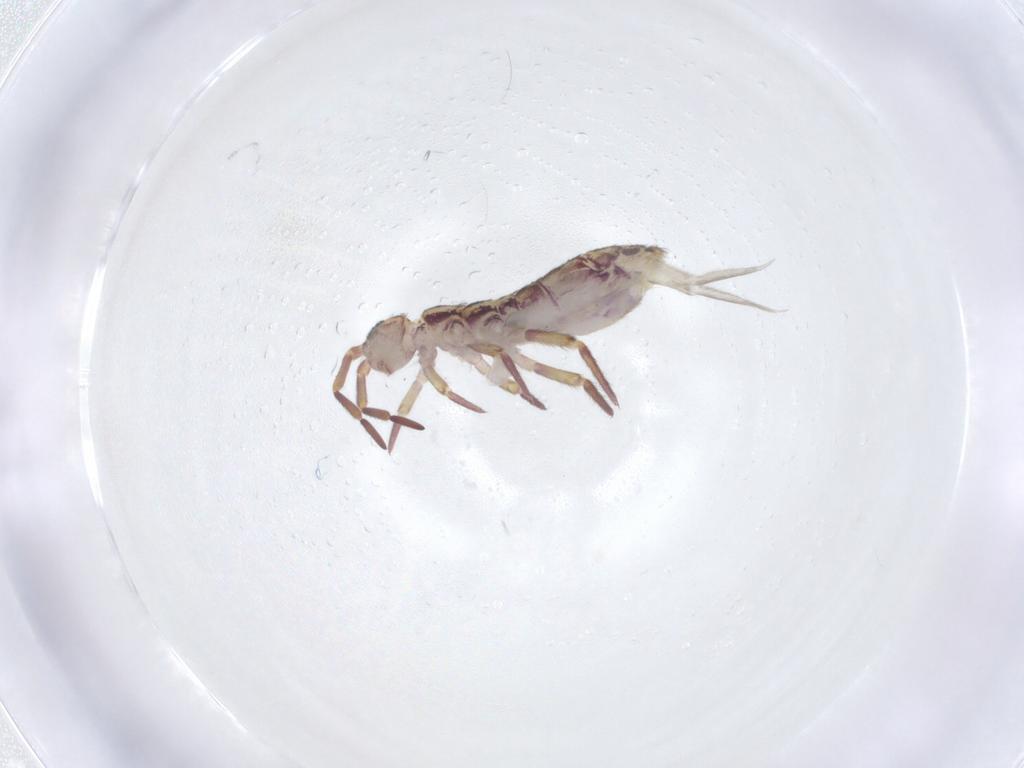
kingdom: Animalia
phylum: Arthropoda
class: Collembola
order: Entomobryomorpha
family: Isotomidae
